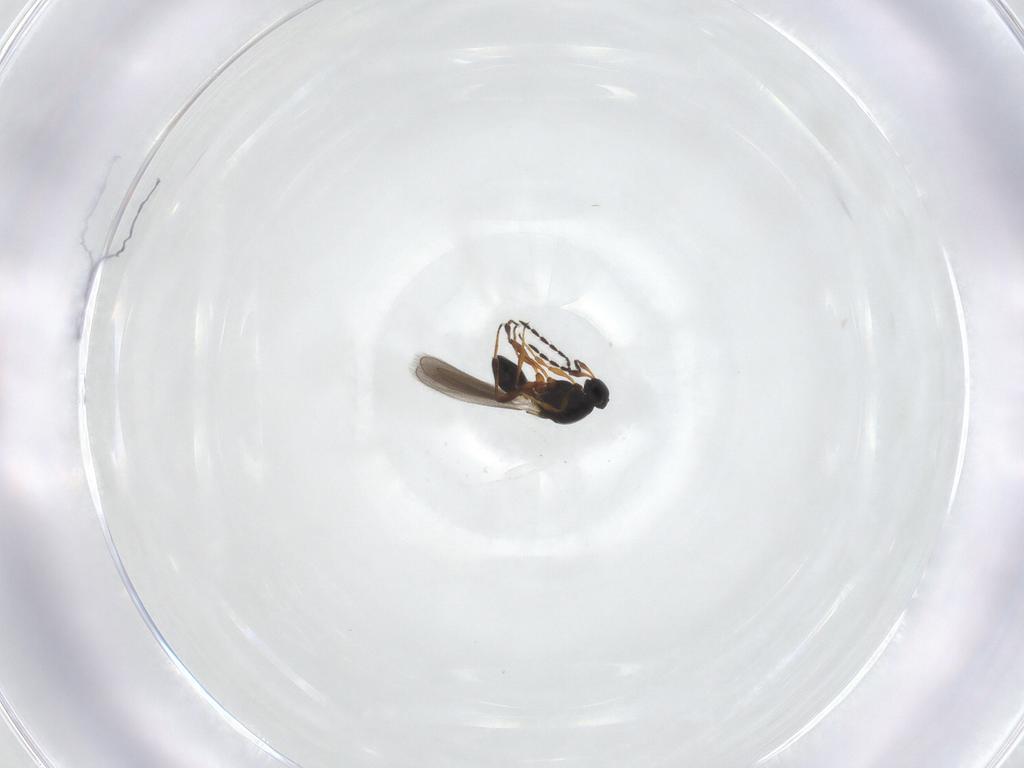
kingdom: Animalia
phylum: Arthropoda
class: Insecta
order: Hymenoptera
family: Platygastridae
